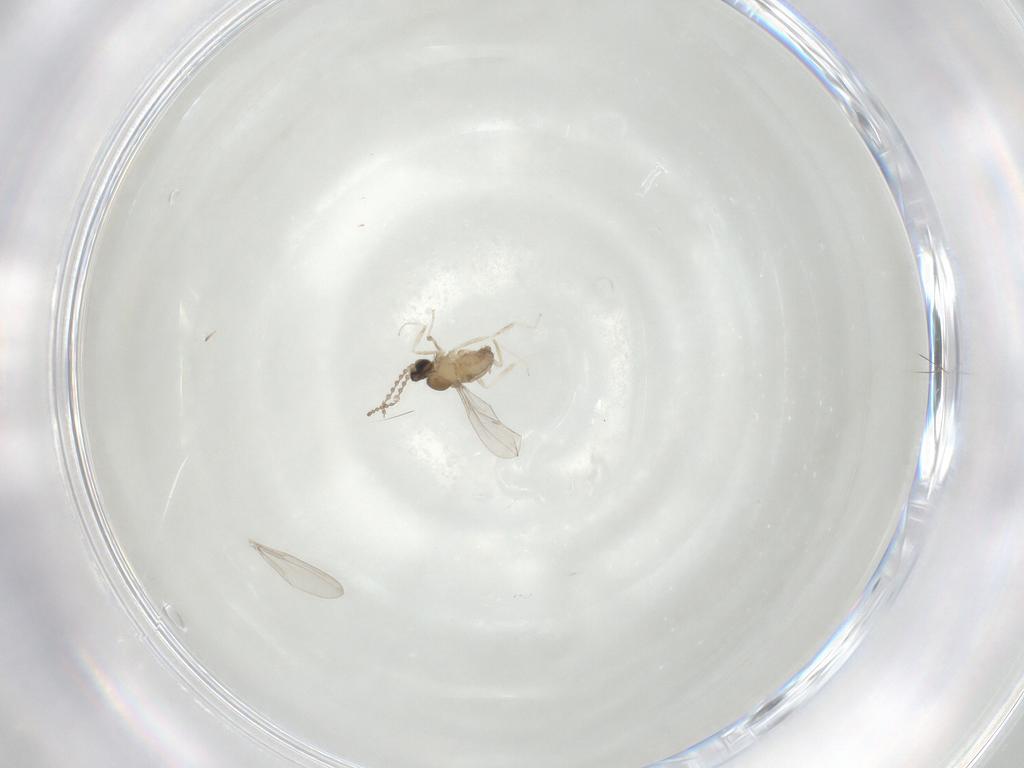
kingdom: Animalia
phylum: Arthropoda
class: Insecta
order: Diptera
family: Cecidomyiidae
